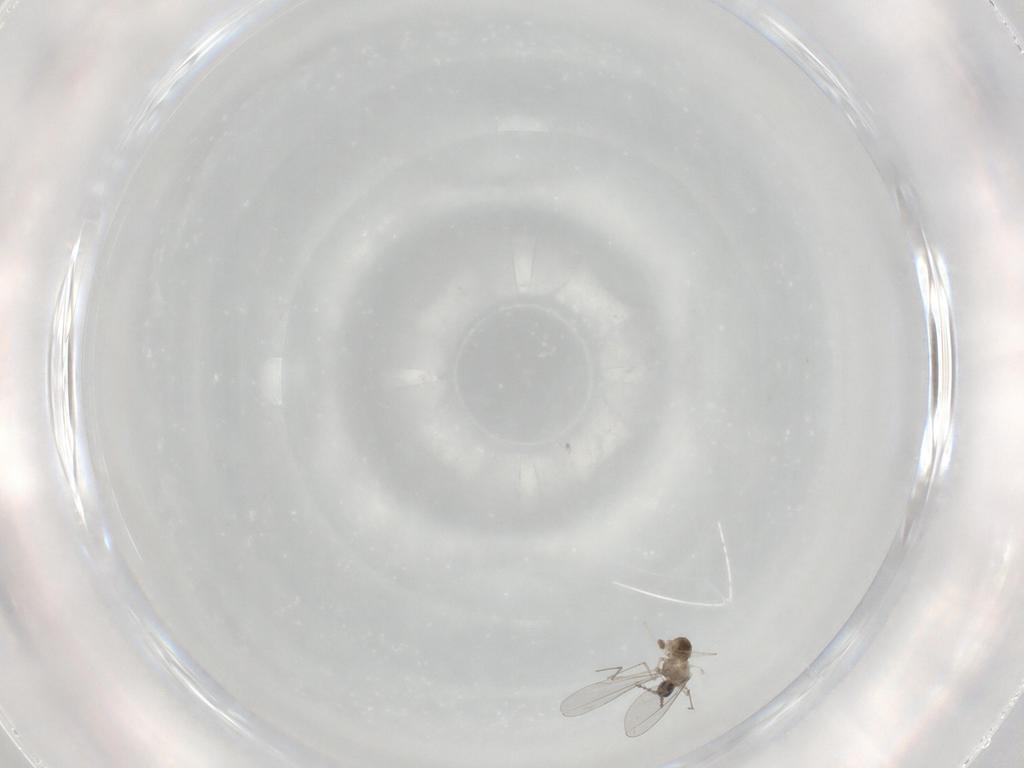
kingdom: Animalia
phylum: Arthropoda
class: Insecta
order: Diptera
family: Cecidomyiidae
